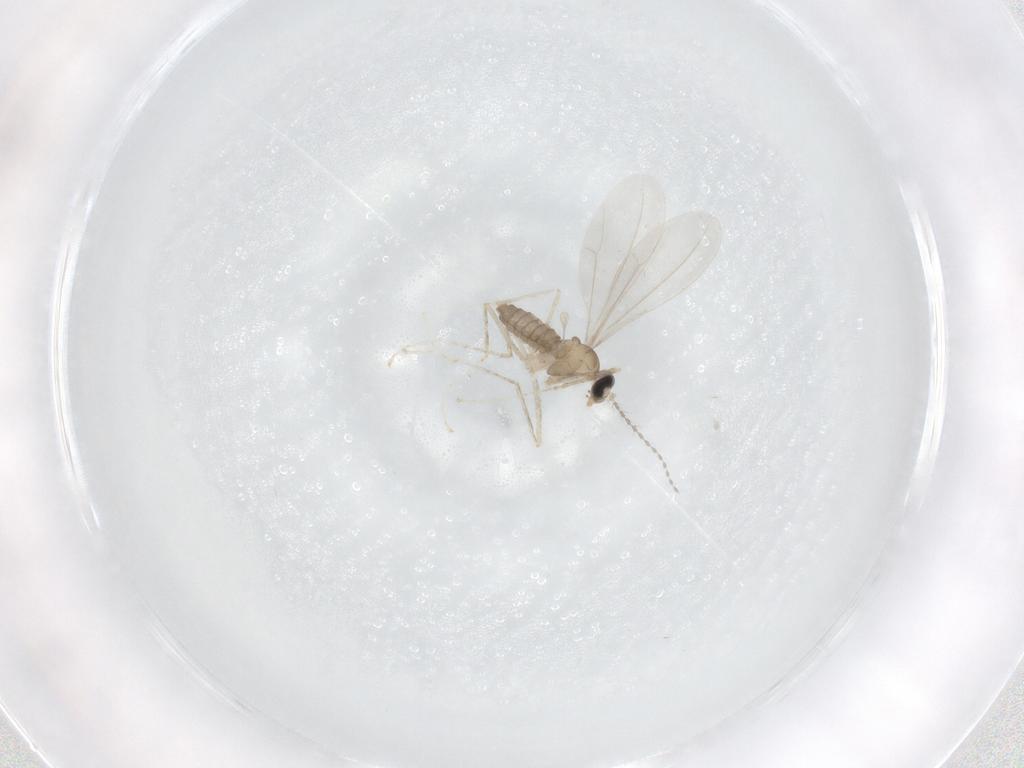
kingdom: Animalia
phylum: Arthropoda
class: Insecta
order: Diptera
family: Cecidomyiidae
